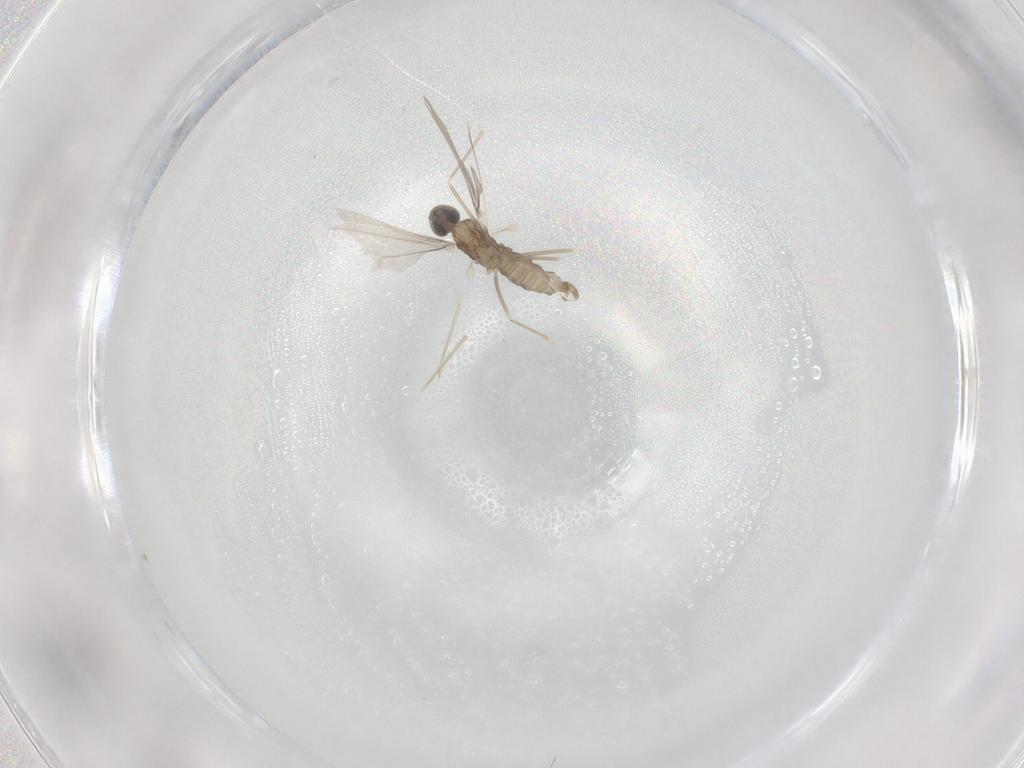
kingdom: Animalia
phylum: Arthropoda
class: Insecta
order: Diptera
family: Cecidomyiidae
